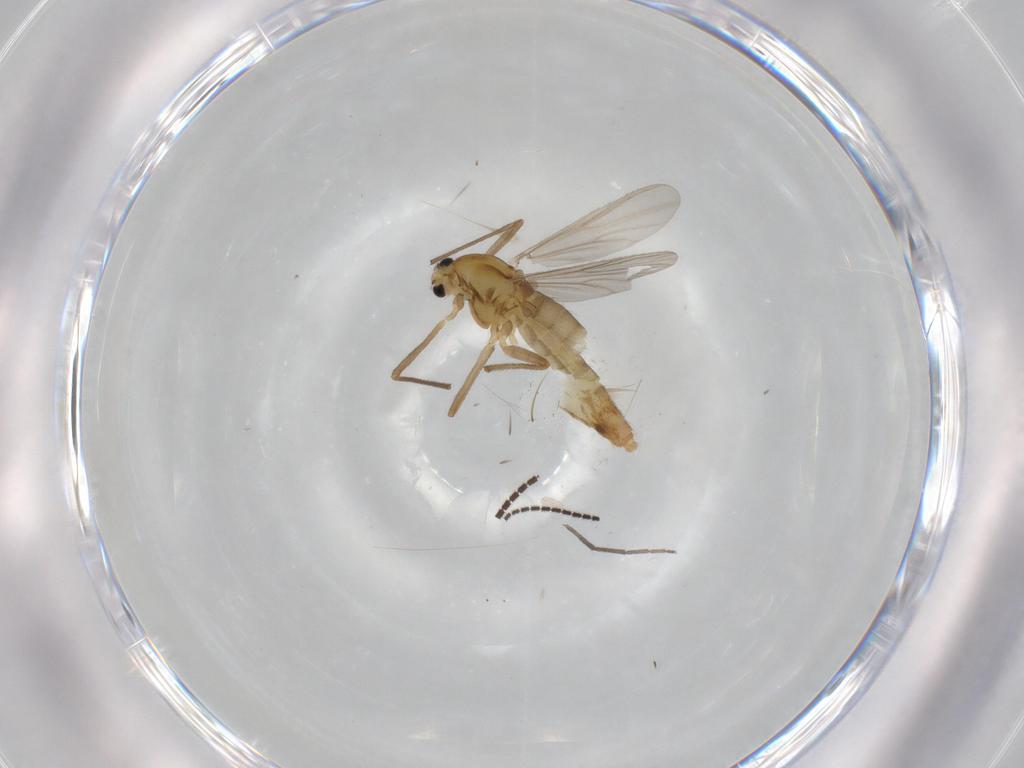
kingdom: Animalia
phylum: Arthropoda
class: Insecta
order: Diptera
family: Chironomidae
